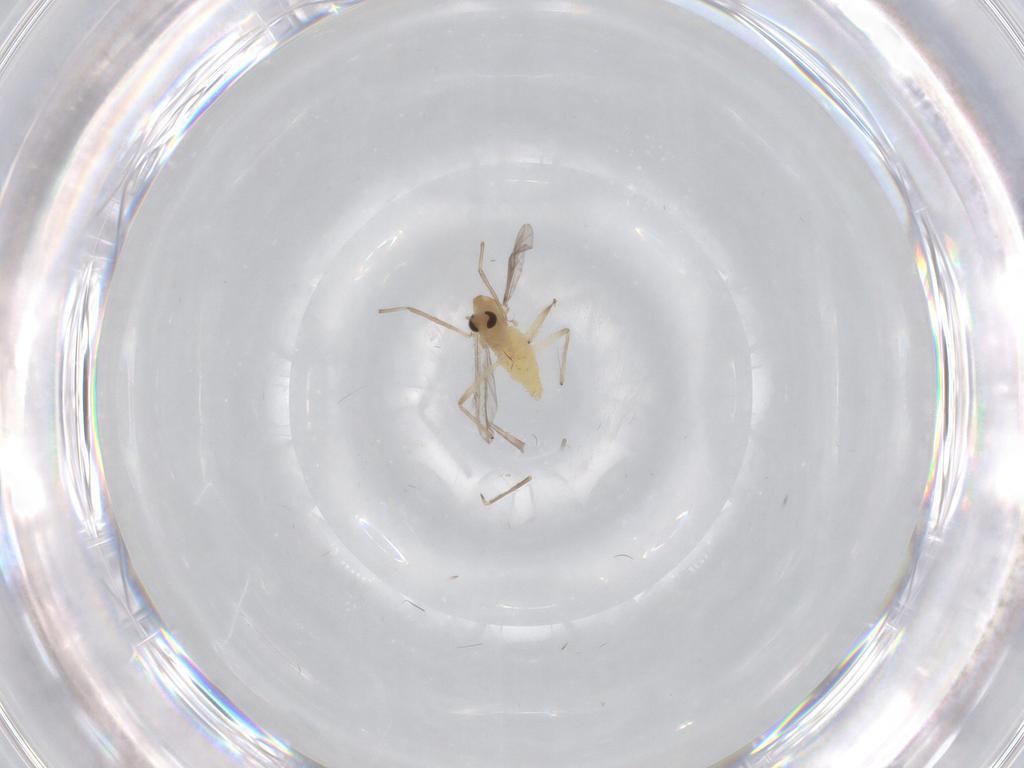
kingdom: Animalia
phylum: Arthropoda
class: Insecta
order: Diptera
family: Chironomidae
